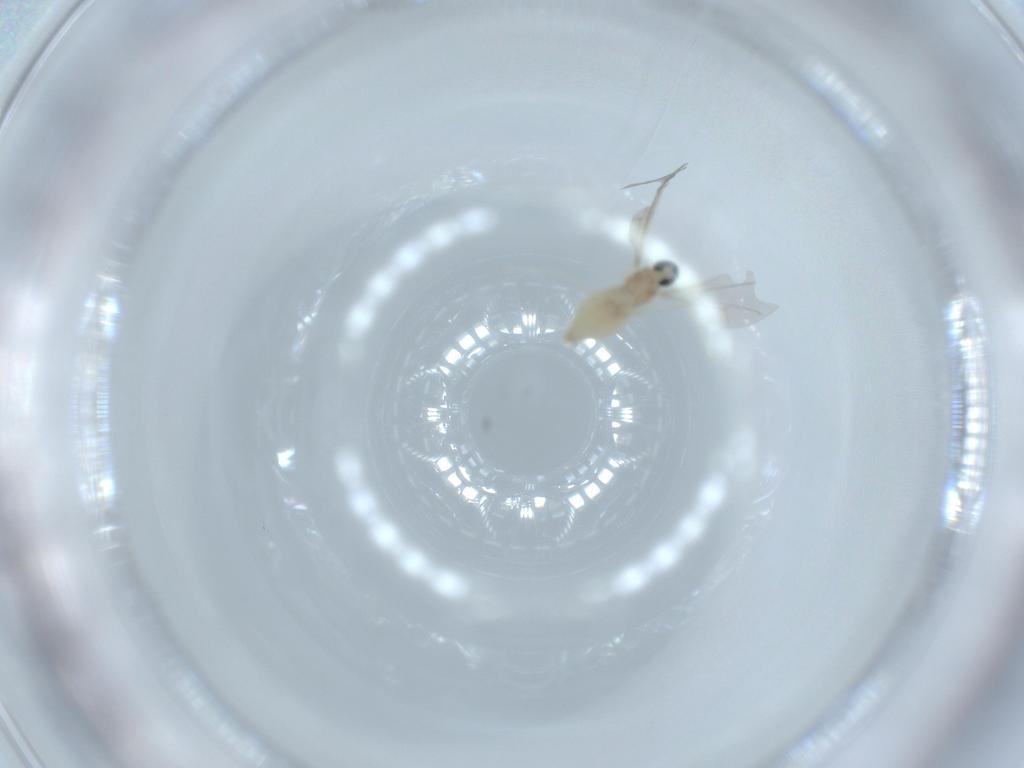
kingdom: Animalia
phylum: Arthropoda
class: Insecta
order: Diptera
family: Cecidomyiidae
